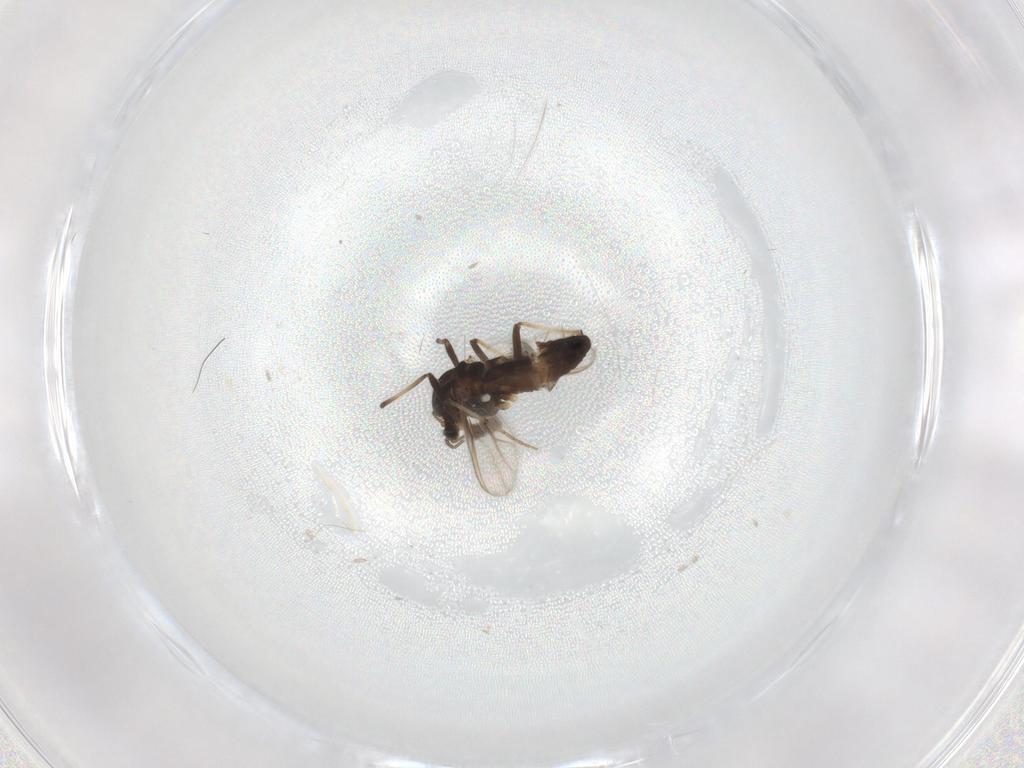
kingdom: Animalia
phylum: Arthropoda
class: Insecta
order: Diptera
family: Chironomidae
